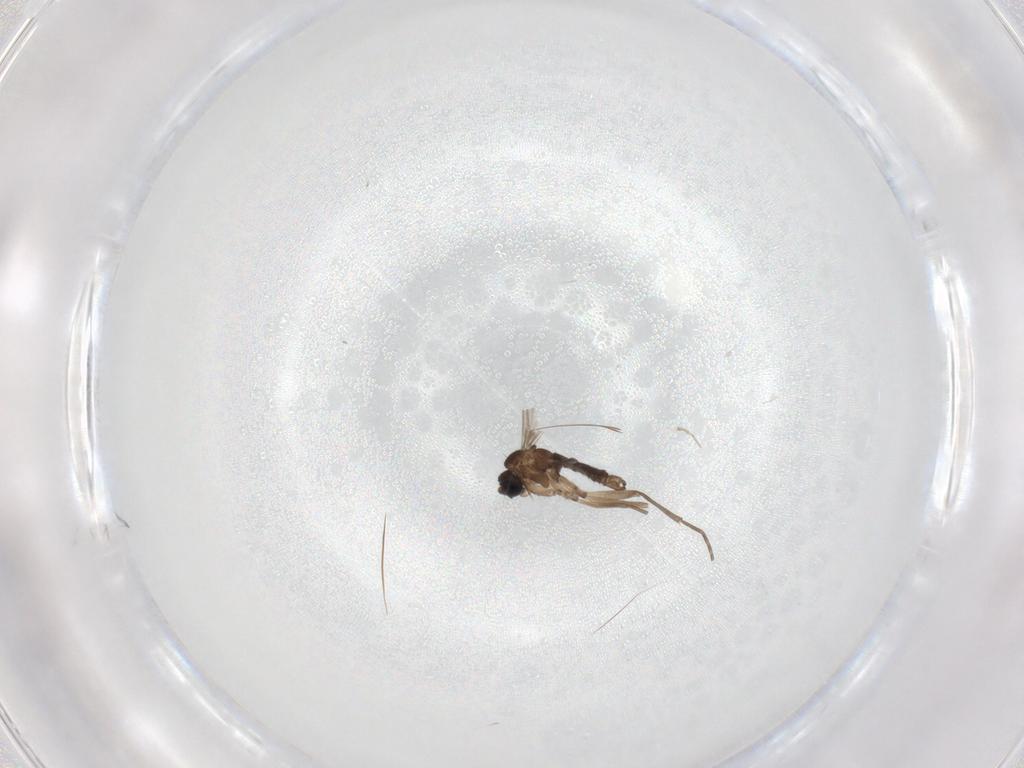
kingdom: Animalia
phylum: Arthropoda
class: Insecta
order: Diptera
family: Sciaridae
